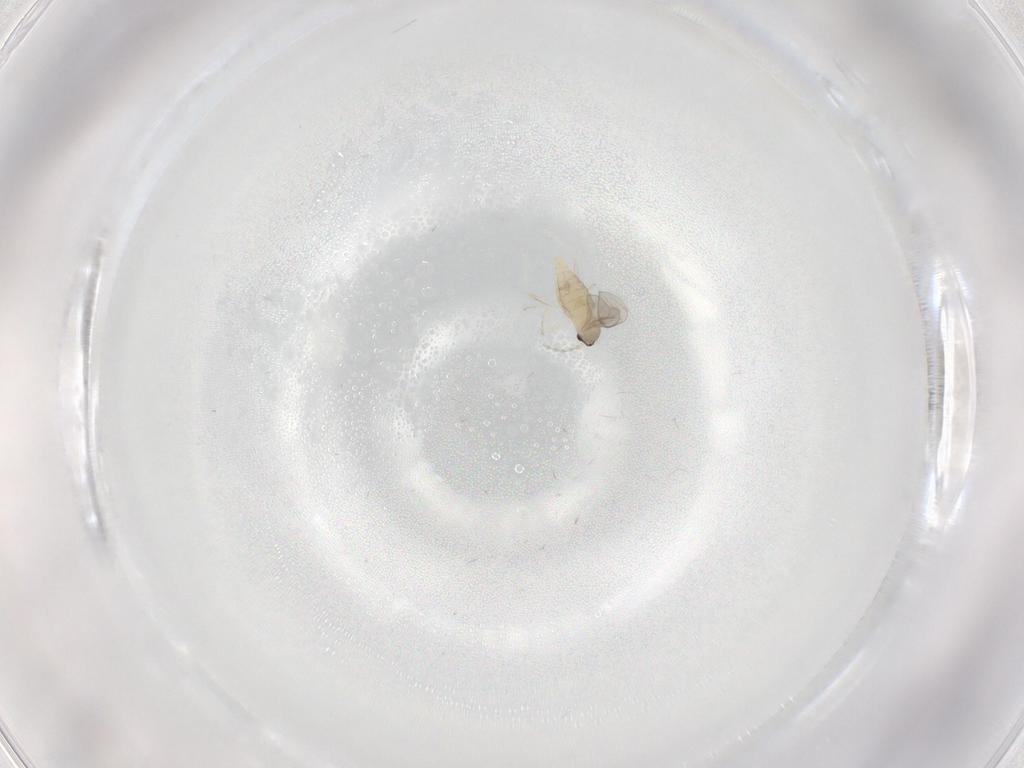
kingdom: Animalia
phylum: Arthropoda
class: Insecta
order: Diptera
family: Cecidomyiidae
